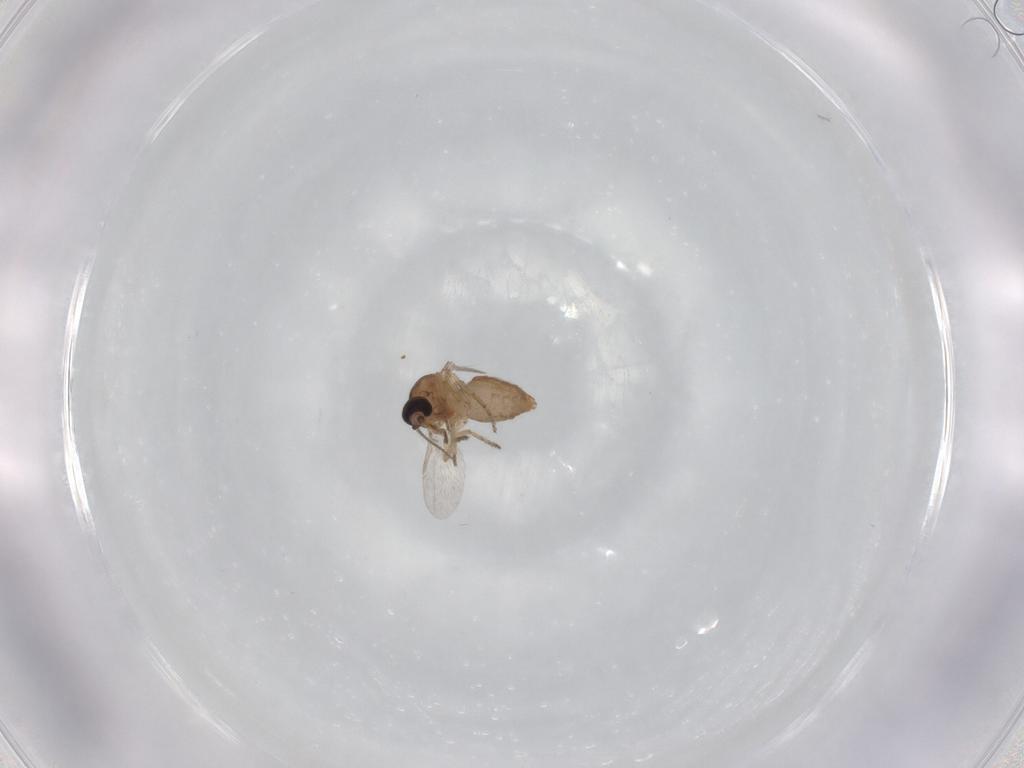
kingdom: Animalia
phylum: Arthropoda
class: Insecta
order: Diptera
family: Ceratopogonidae
